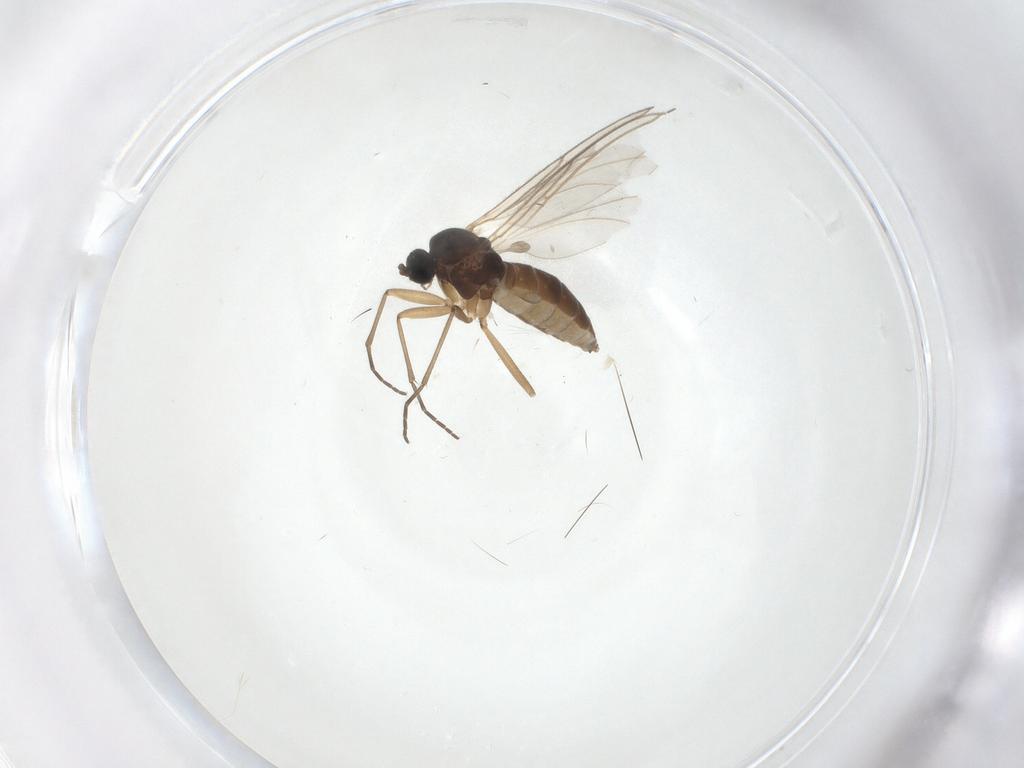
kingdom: Animalia
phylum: Arthropoda
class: Insecta
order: Diptera
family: Sciaridae
